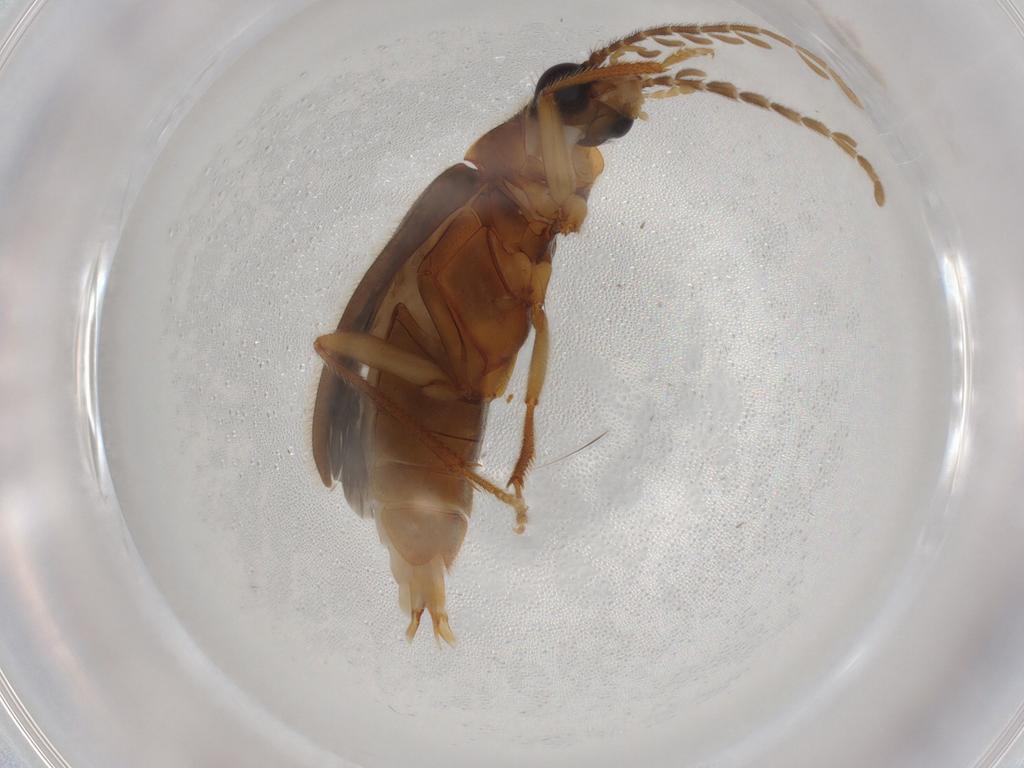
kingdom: Animalia
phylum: Arthropoda
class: Insecta
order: Coleoptera
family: Ptilodactylidae
